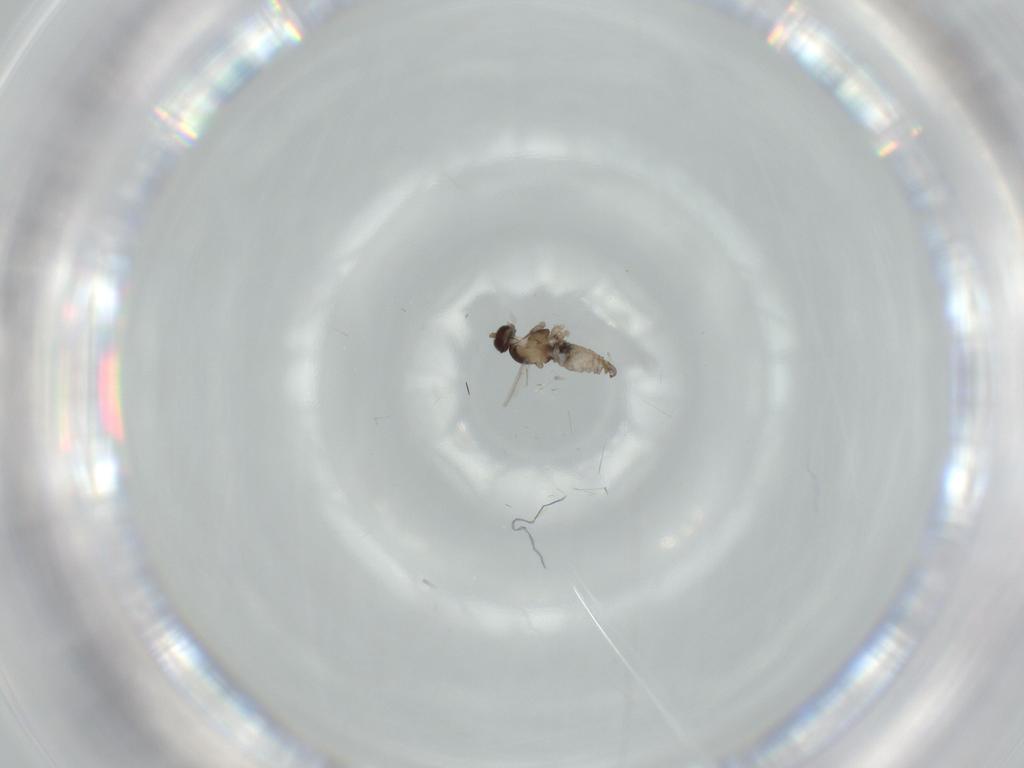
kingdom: Animalia
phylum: Arthropoda
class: Insecta
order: Diptera
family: Cecidomyiidae
